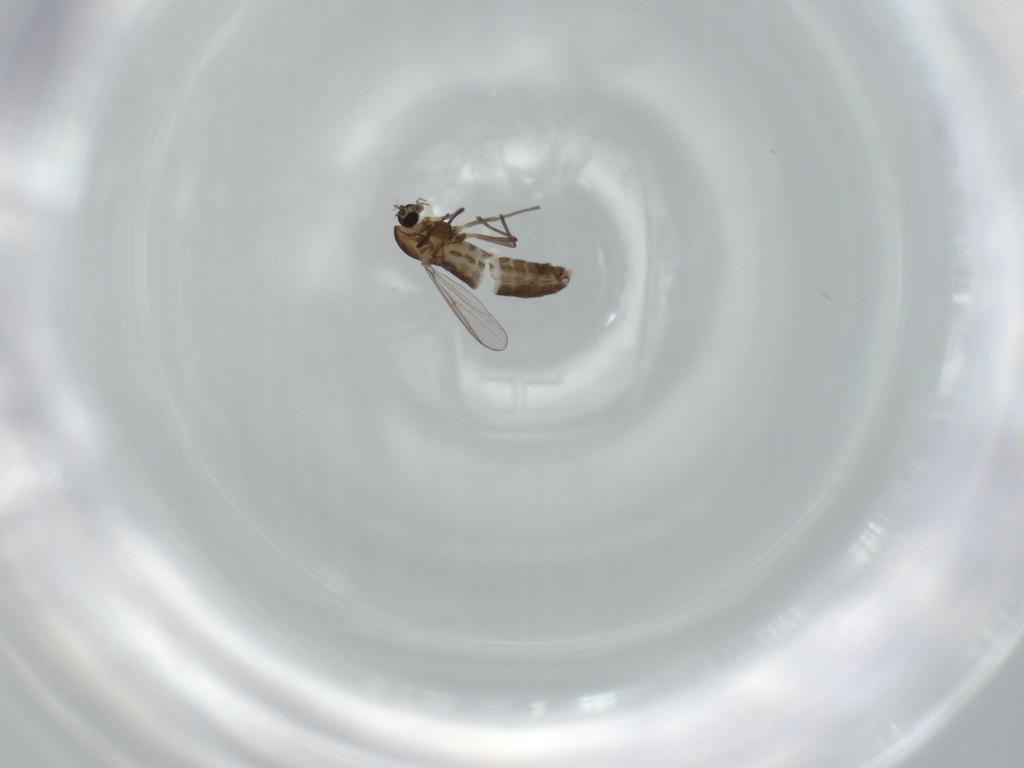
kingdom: Animalia
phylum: Arthropoda
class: Insecta
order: Diptera
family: Chironomidae
